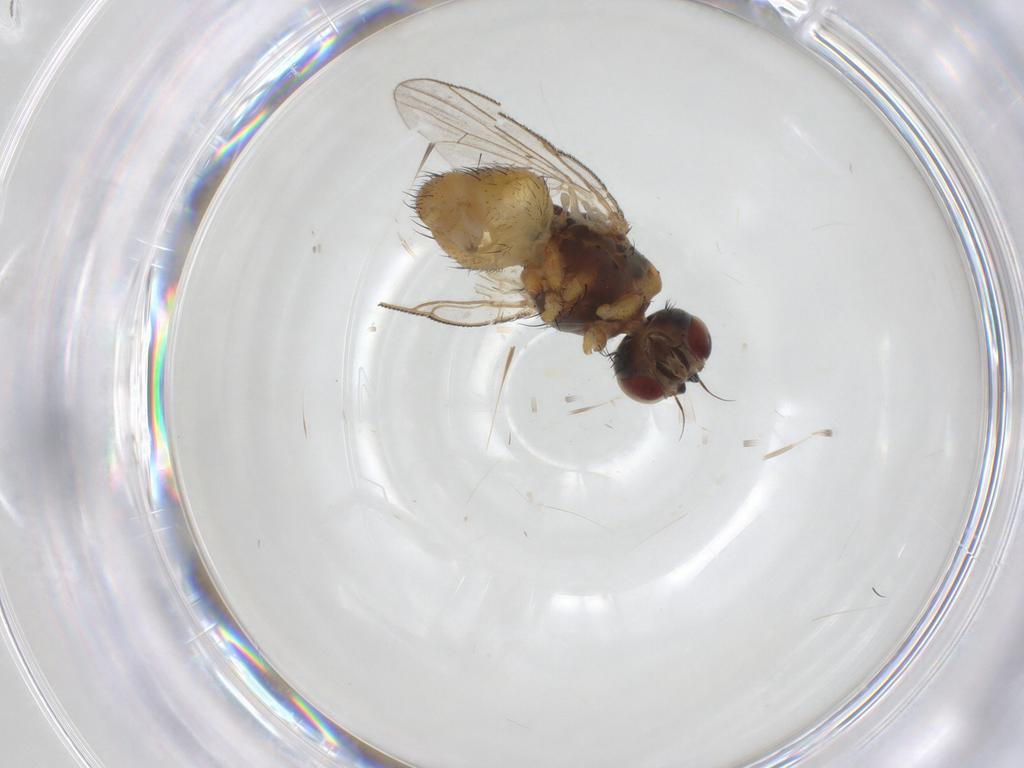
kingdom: Animalia
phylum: Arthropoda
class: Insecta
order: Diptera
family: Muscidae
